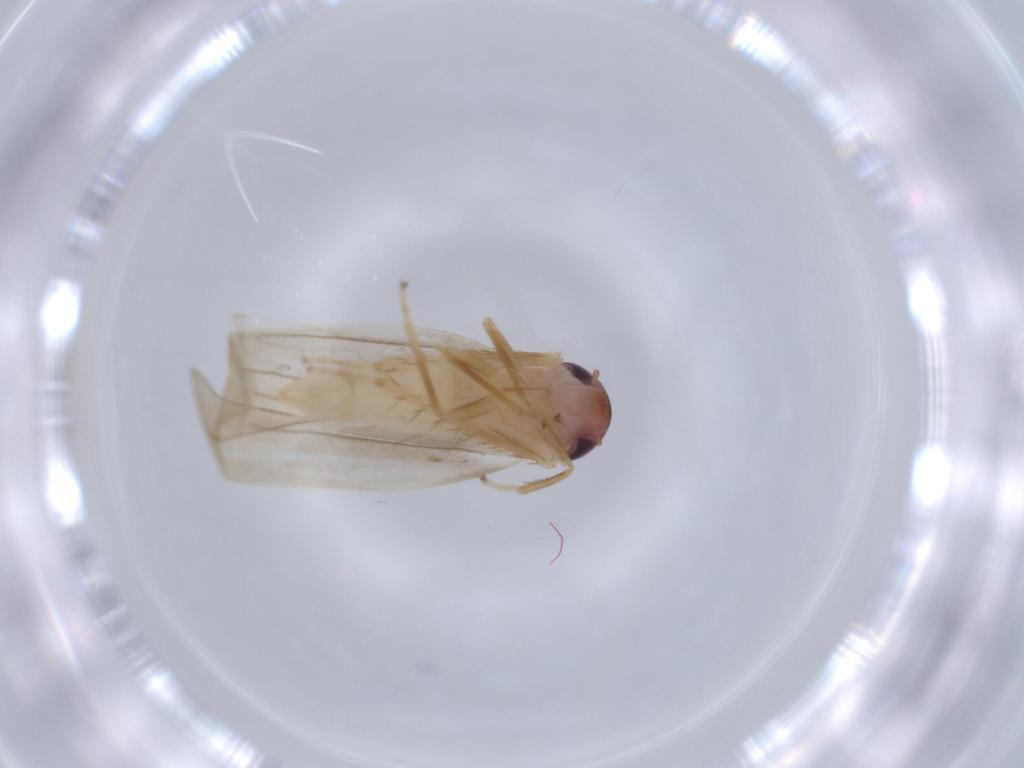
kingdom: Animalia
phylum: Arthropoda
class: Insecta
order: Hemiptera
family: Cicadellidae
